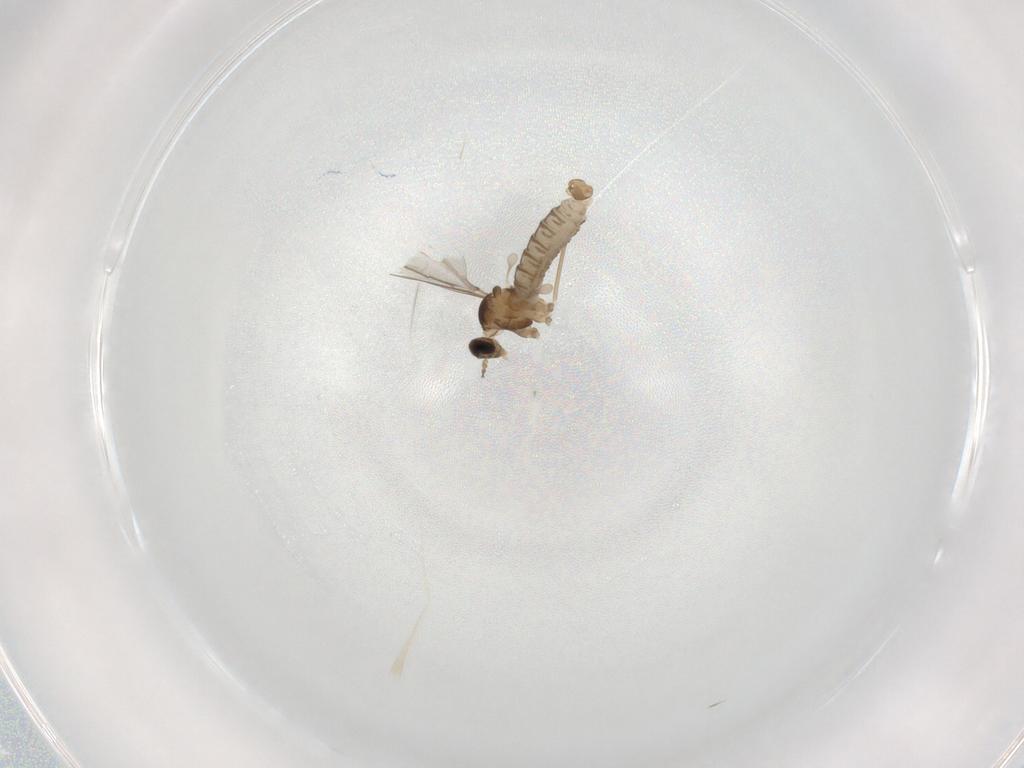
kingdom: Animalia
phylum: Arthropoda
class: Insecta
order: Diptera
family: Cecidomyiidae
